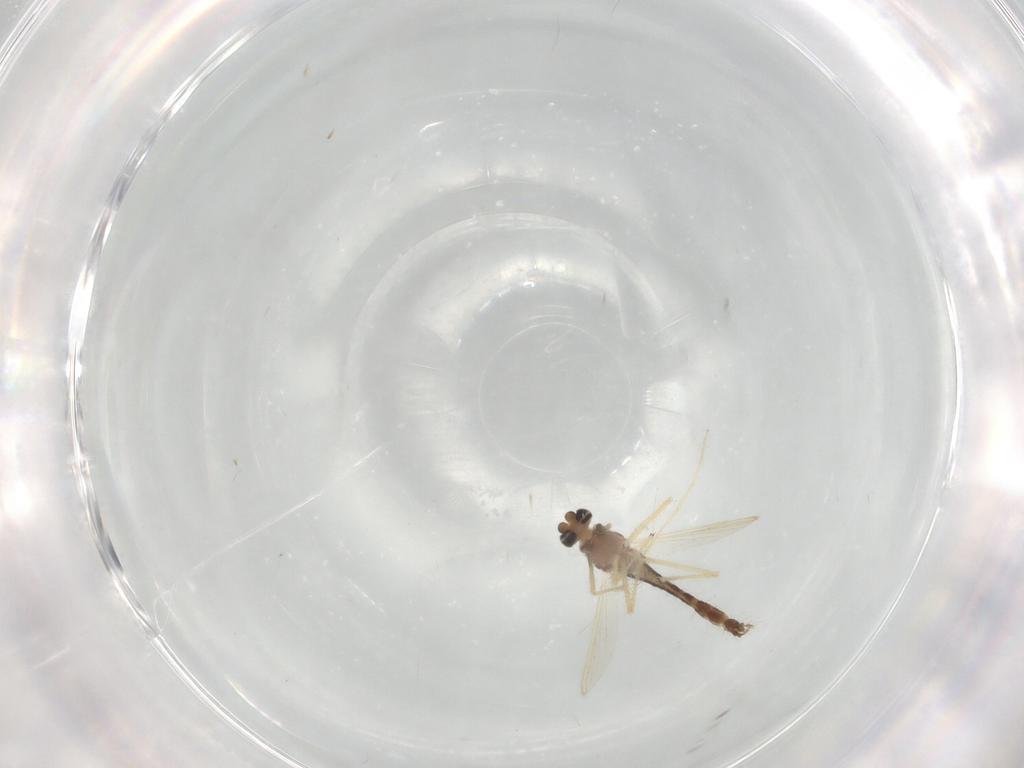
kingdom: Animalia
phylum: Arthropoda
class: Insecta
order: Diptera
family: Chironomidae
